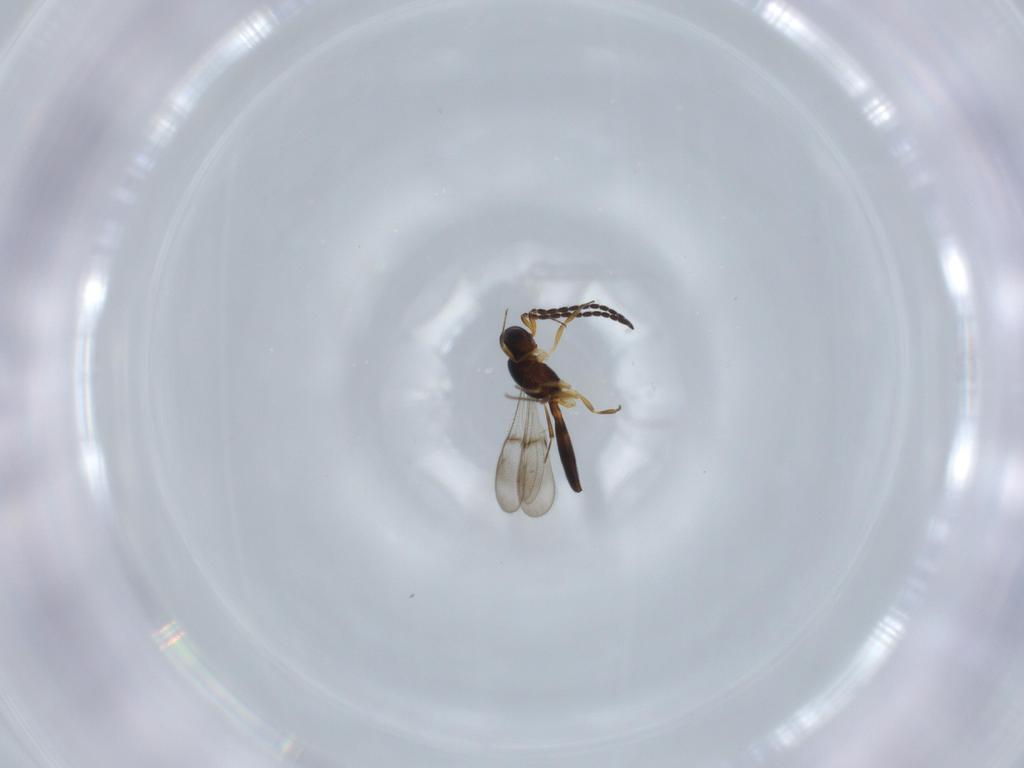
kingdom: Animalia
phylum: Arthropoda
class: Insecta
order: Hymenoptera
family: Scelionidae
